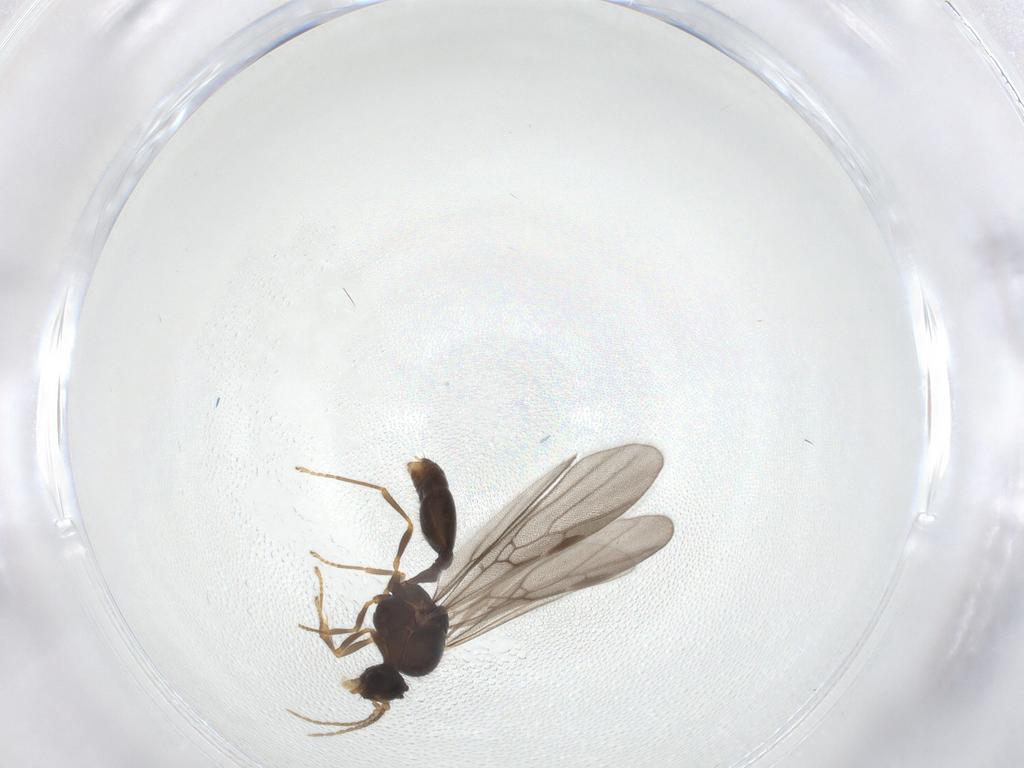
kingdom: Animalia
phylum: Arthropoda
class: Insecta
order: Hymenoptera
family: Formicidae
